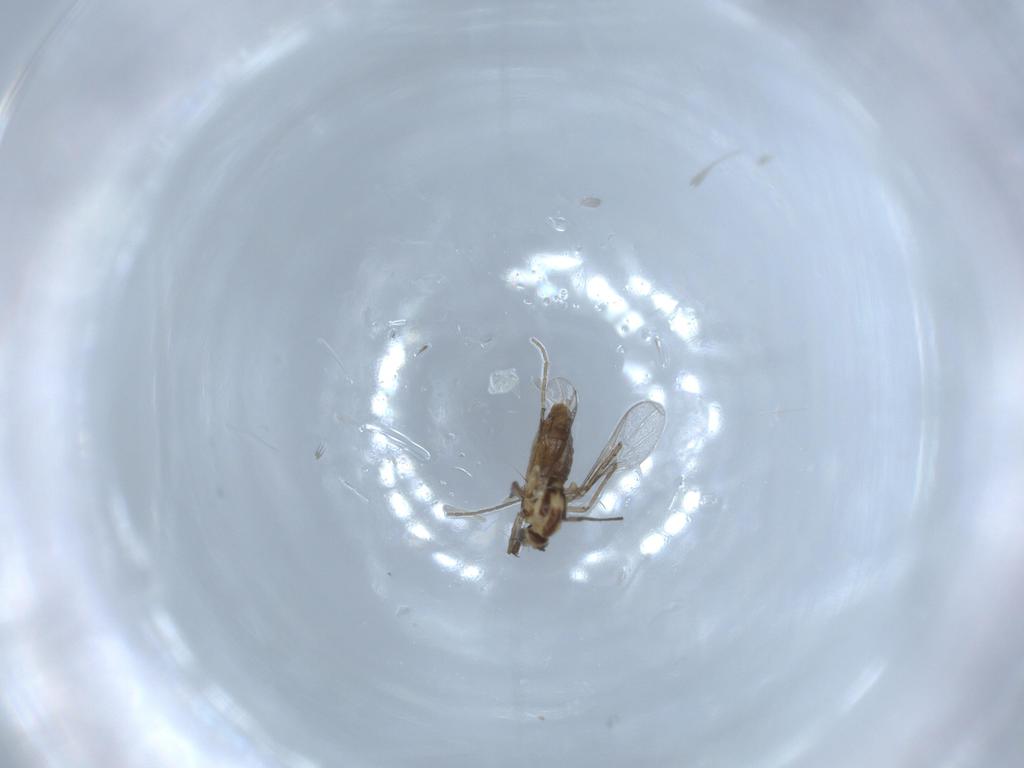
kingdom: Animalia
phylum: Arthropoda
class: Insecta
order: Diptera
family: Chironomidae
